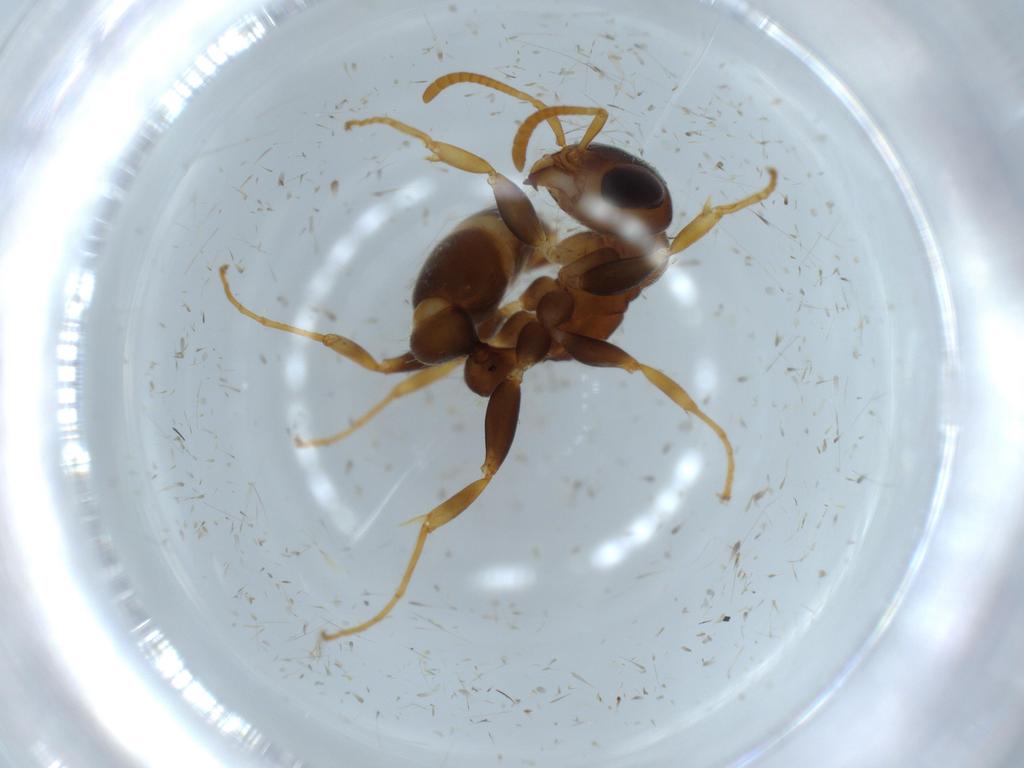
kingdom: Animalia
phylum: Arthropoda
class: Insecta
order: Hymenoptera
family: Formicidae
